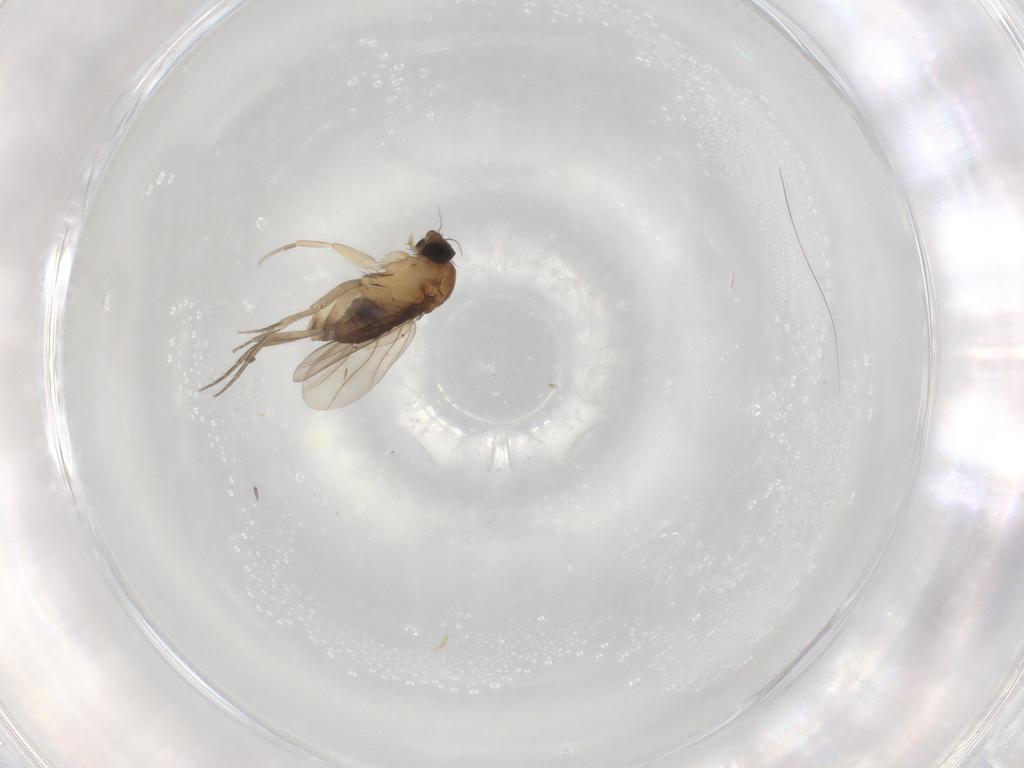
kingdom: Animalia
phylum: Arthropoda
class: Insecta
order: Diptera
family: Phoridae
